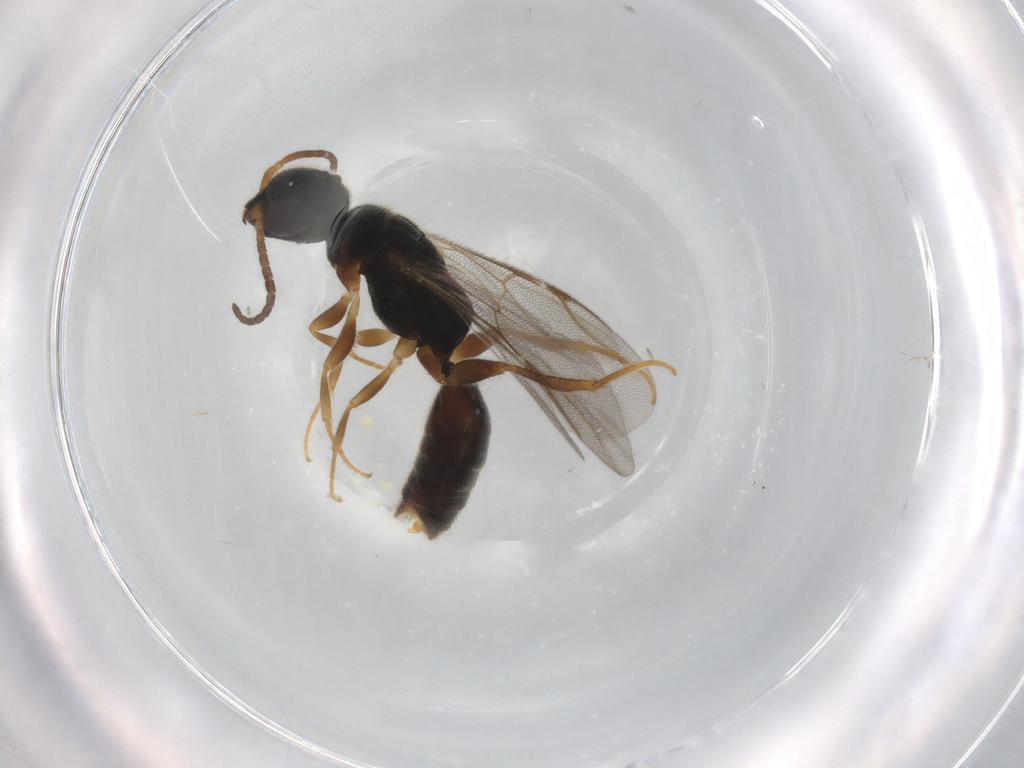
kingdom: Animalia
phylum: Arthropoda
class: Insecta
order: Hymenoptera
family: Bethylidae
